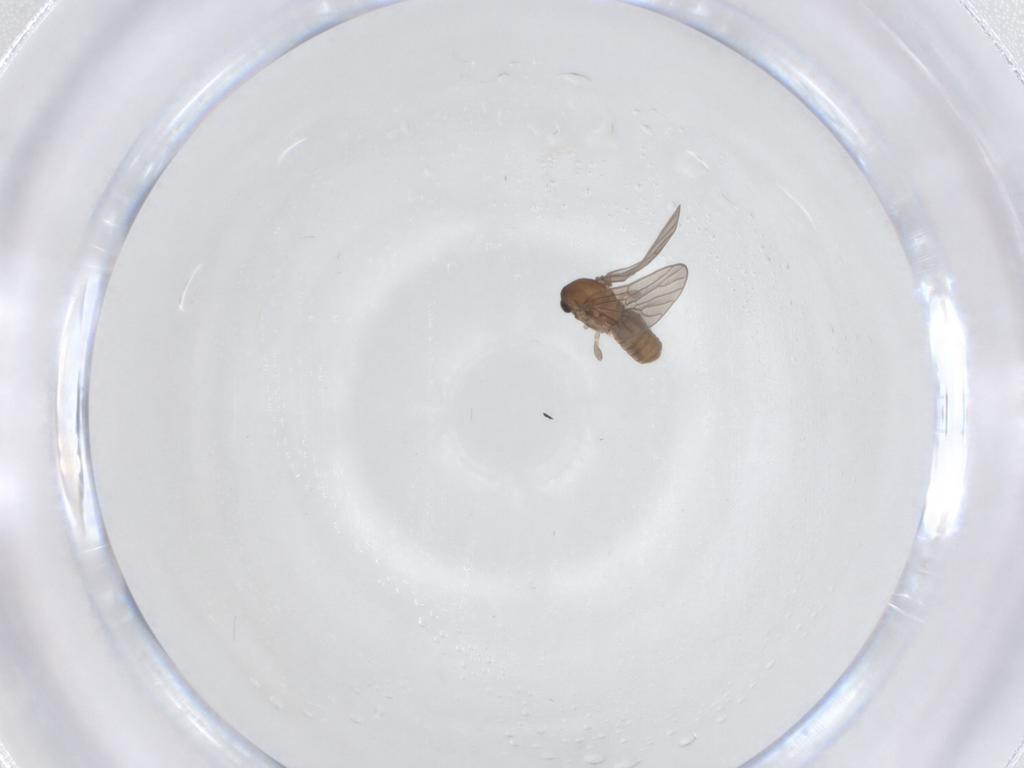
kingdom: Animalia
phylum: Arthropoda
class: Insecta
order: Diptera
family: Psychodidae
